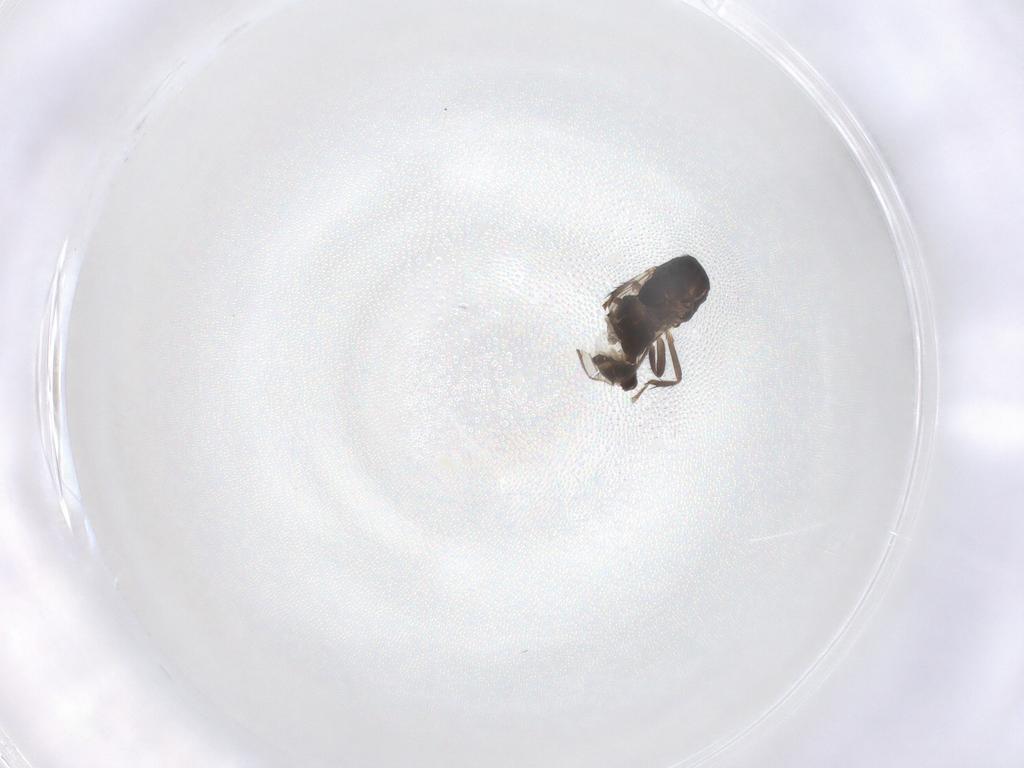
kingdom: Animalia
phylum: Arthropoda
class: Insecta
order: Diptera
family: Sphaeroceridae
